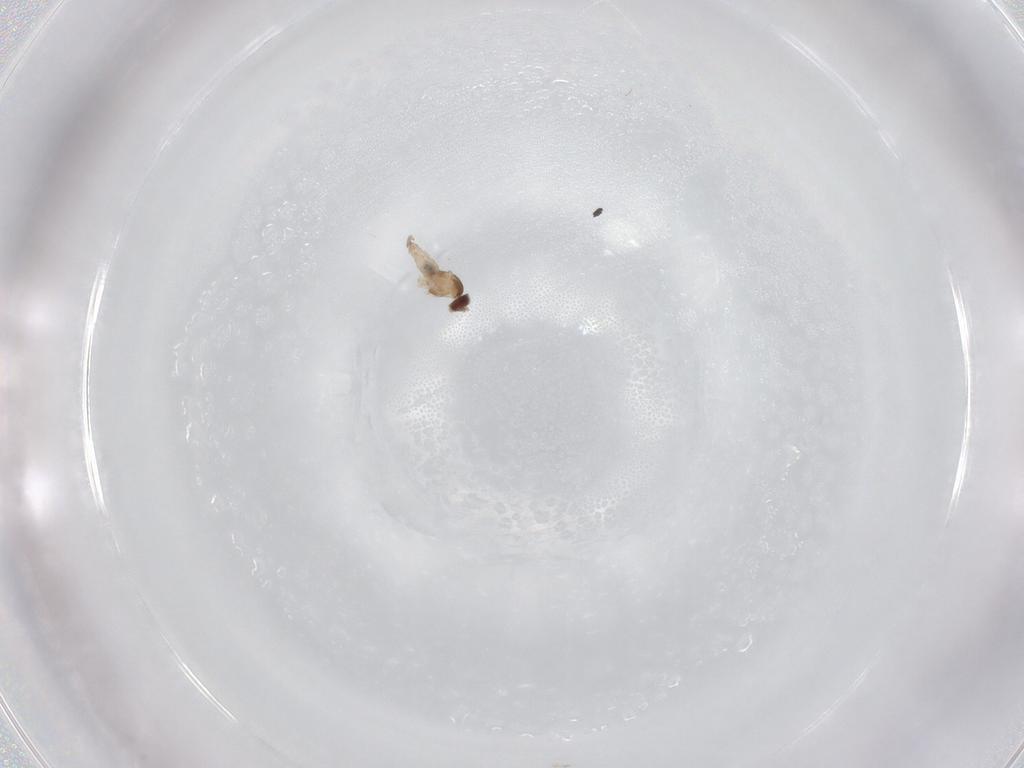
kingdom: Animalia
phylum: Arthropoda
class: Insecta
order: Diptera
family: Cecidomyiidae
